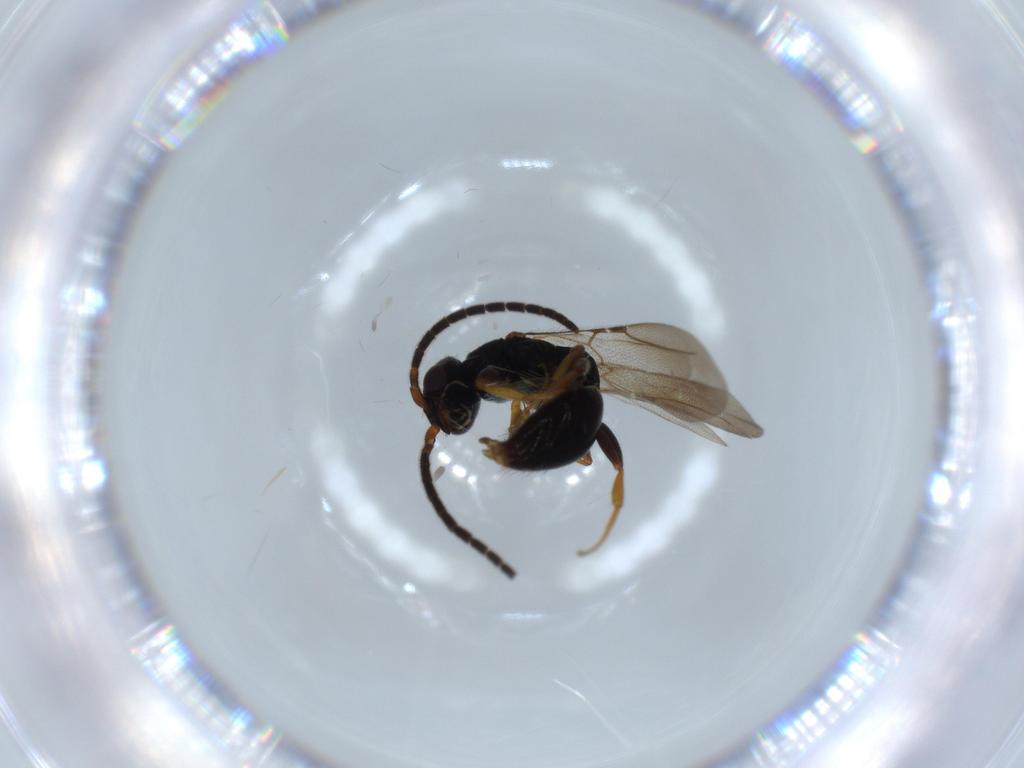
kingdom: Animalia
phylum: Arthropoda
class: Insecta
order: Hymenoptera
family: Bethylidae
